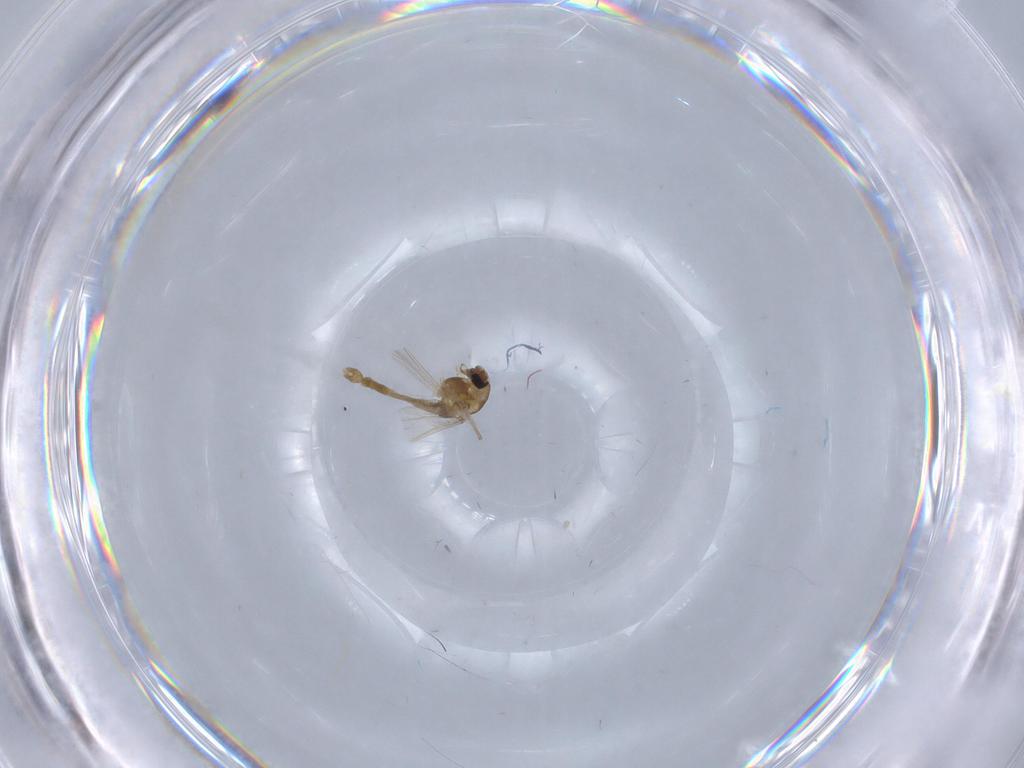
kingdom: Animalia
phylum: Arthropoda
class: Insecta
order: Diptera
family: Chironomidae
